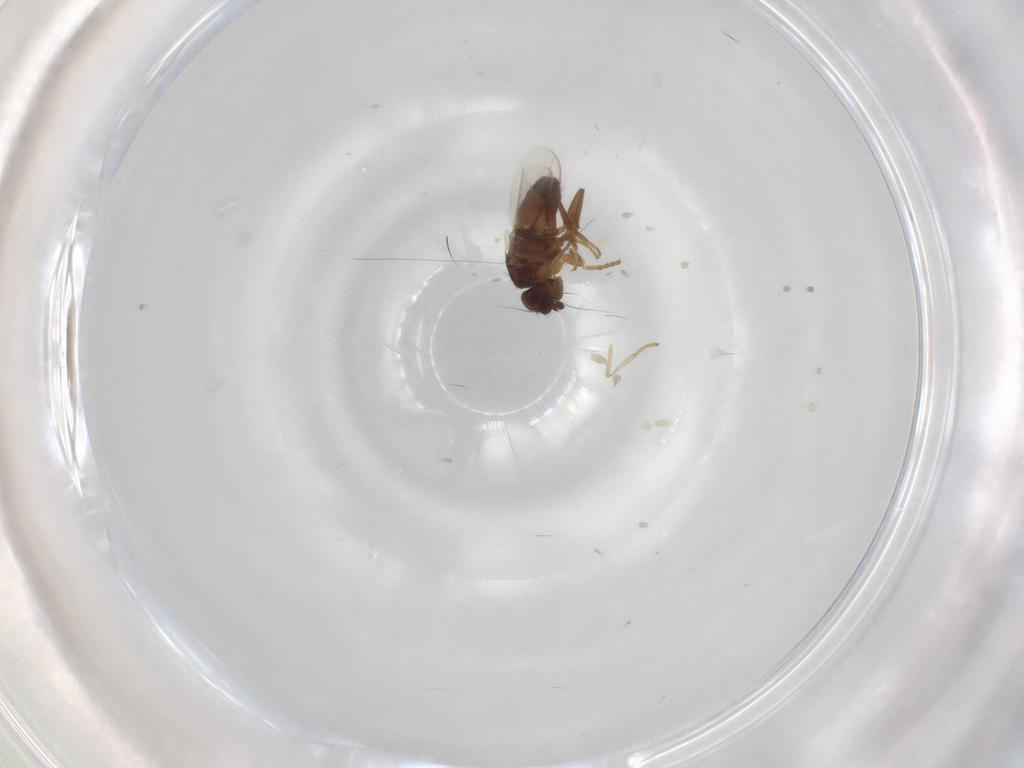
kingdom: Animalia
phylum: Arthropoda
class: Insecta
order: Diptera
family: Sphaeroceridae
